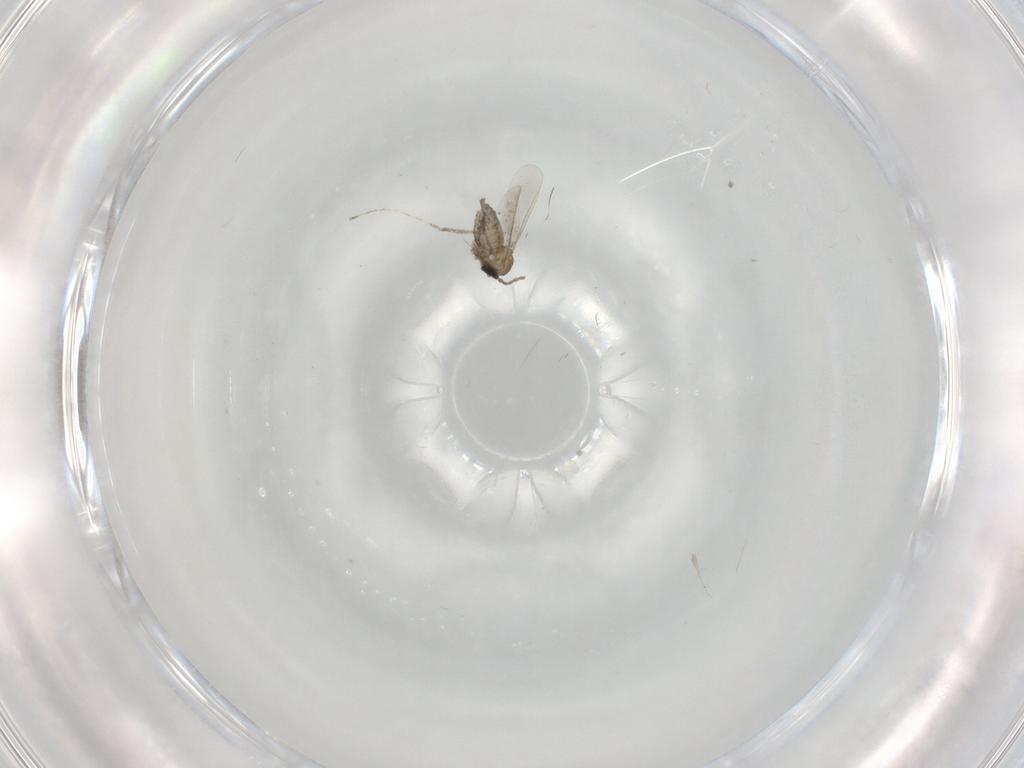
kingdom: Animalia
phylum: Arthropoda
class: Insecta
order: Diptera
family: Cecidomyiidae
